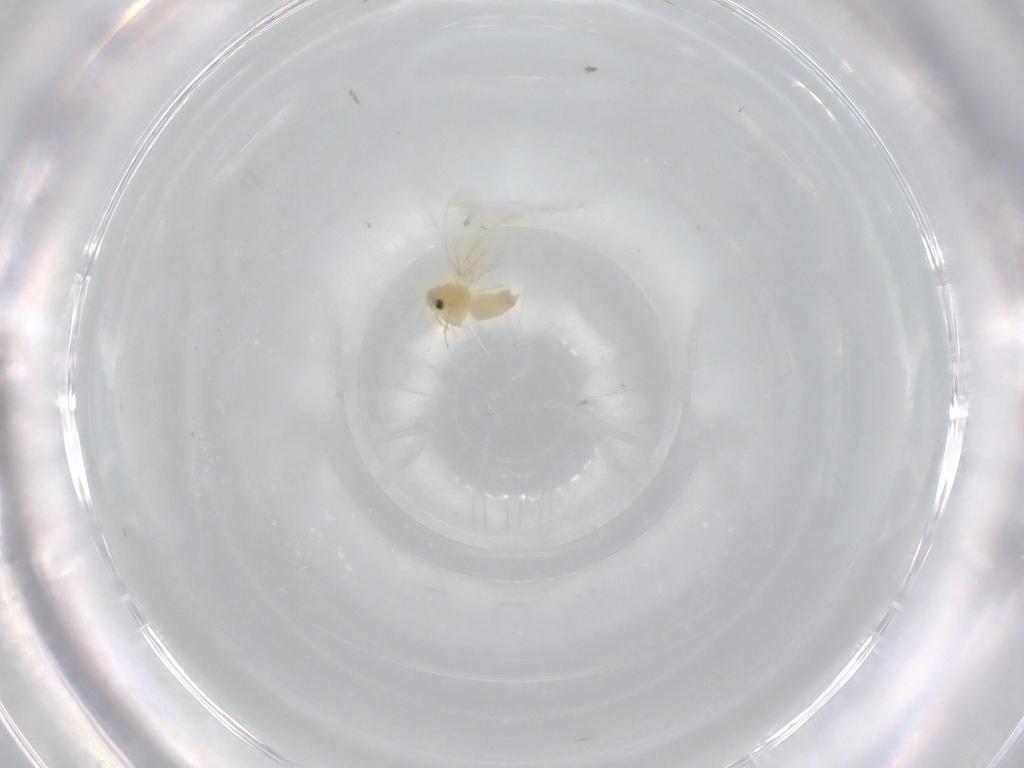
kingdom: Animalia
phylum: Arthropoda
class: Insecta
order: Hemiptera
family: Aleyrodidae
